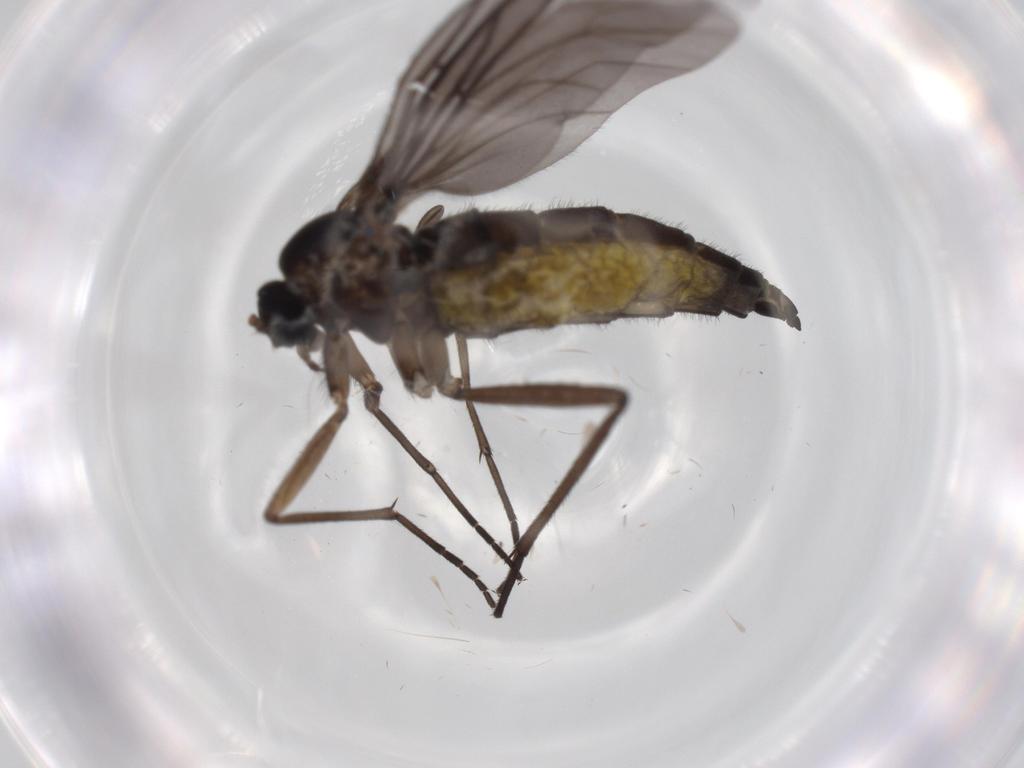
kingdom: Animalia
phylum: Arthropoda
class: Insecta
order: Diptera
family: Sciaridae
